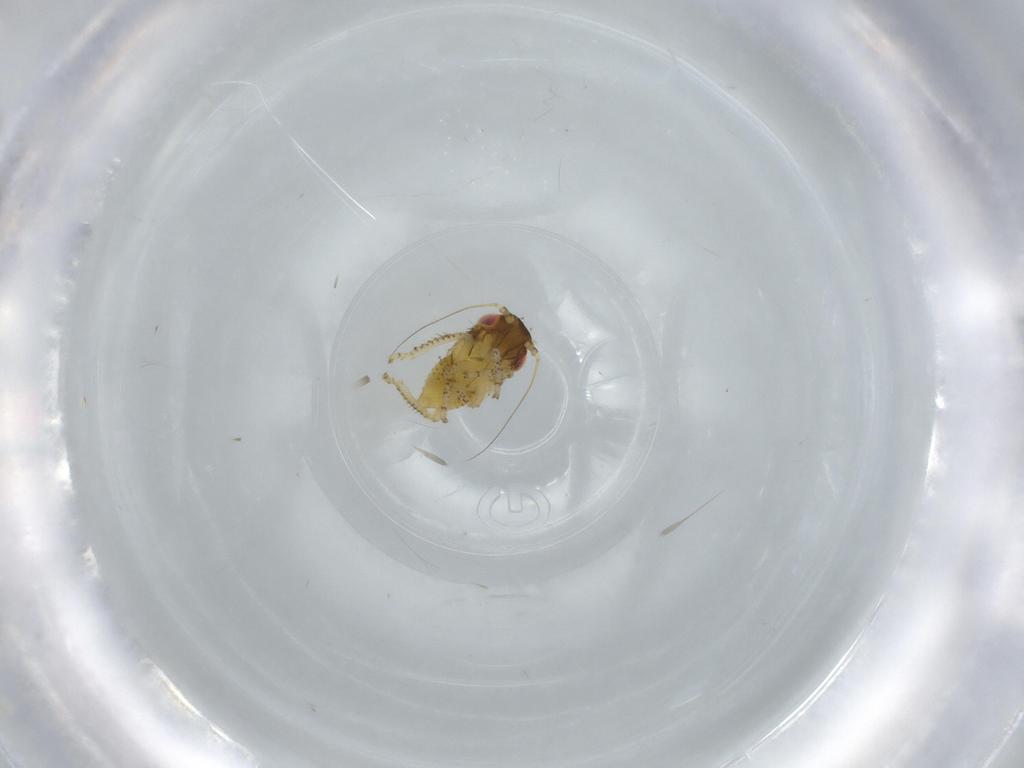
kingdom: Animalia
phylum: Arthropoda
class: Insecta
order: Hemiptera
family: Cicadellidae
